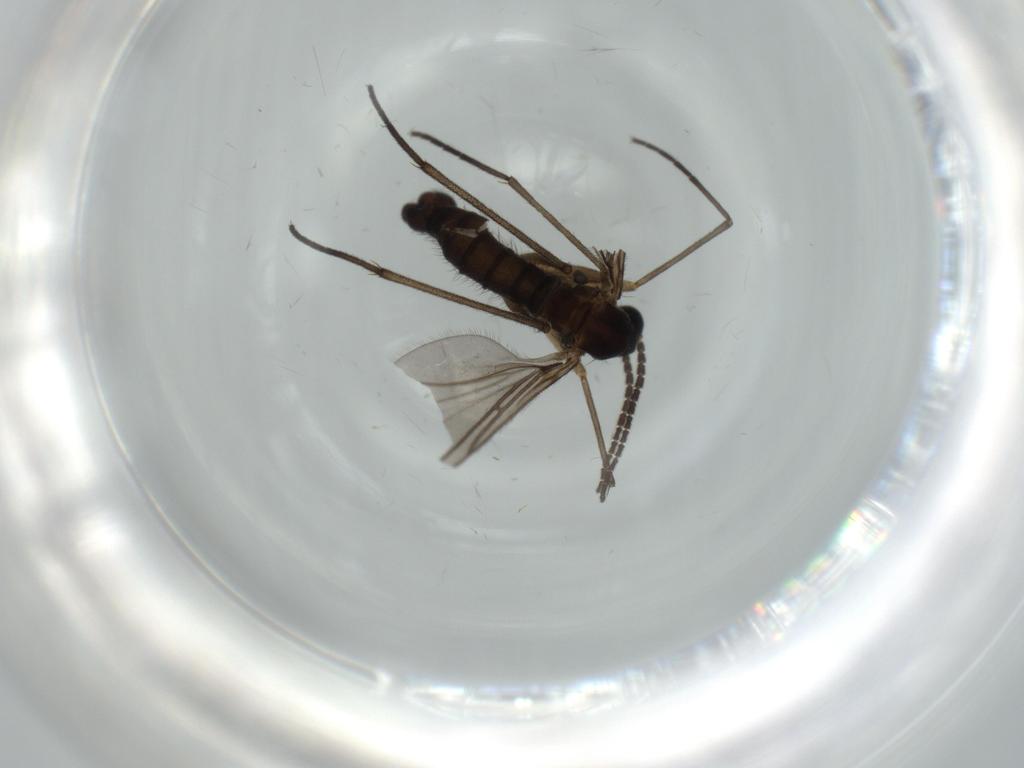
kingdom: Animalia
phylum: Arthropoda
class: Insecta
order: Diptera
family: Sciaridae
